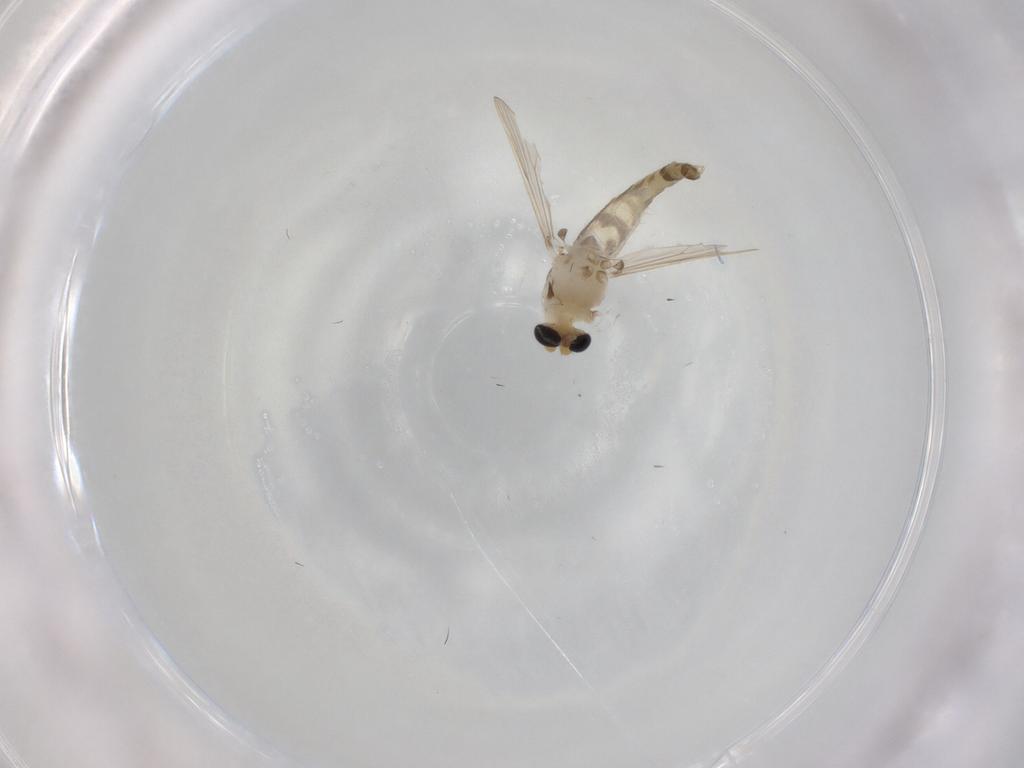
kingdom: Animalia
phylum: Arthropoda
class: Insecta
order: Diptera
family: Chironomidae
